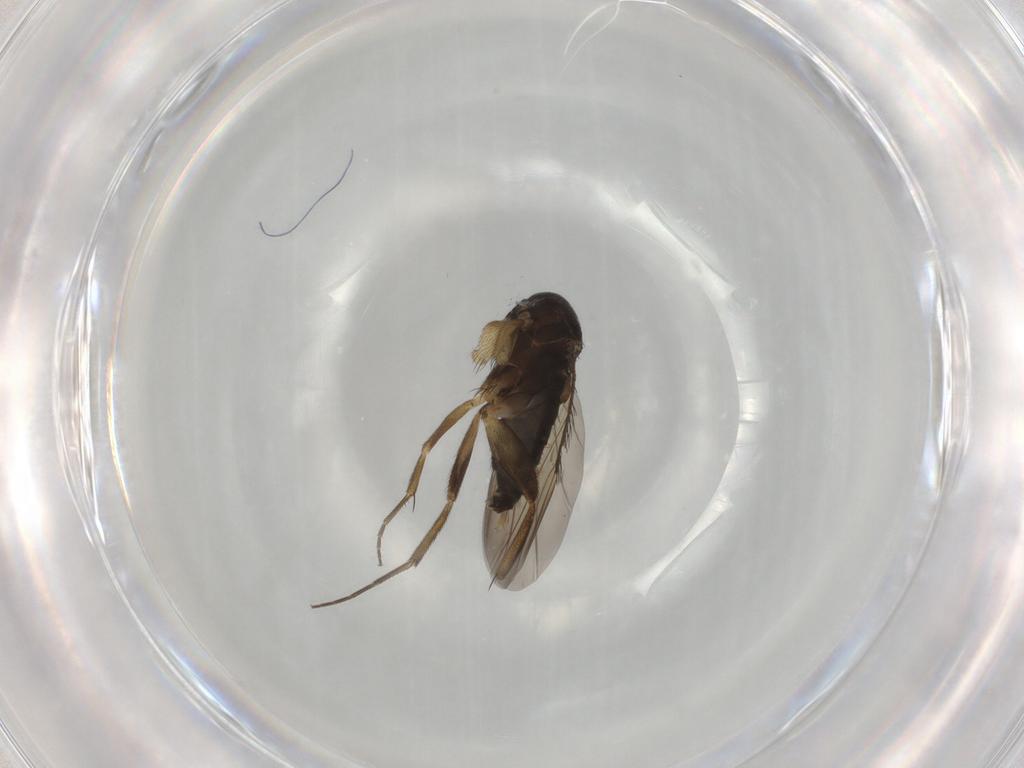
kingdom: Animalia
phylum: Arthropoda
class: Insecta
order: Diptera
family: Phoridae
